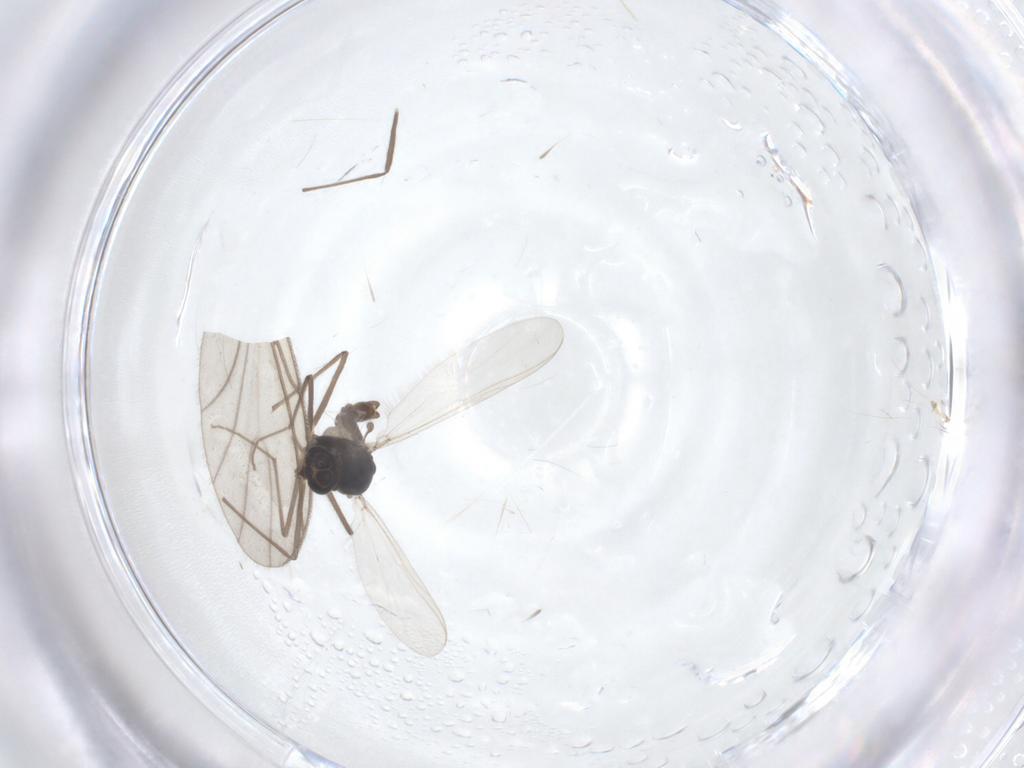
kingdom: Animalia
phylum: Arthropoda
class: Insecta
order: Diptera
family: Chironomidae
